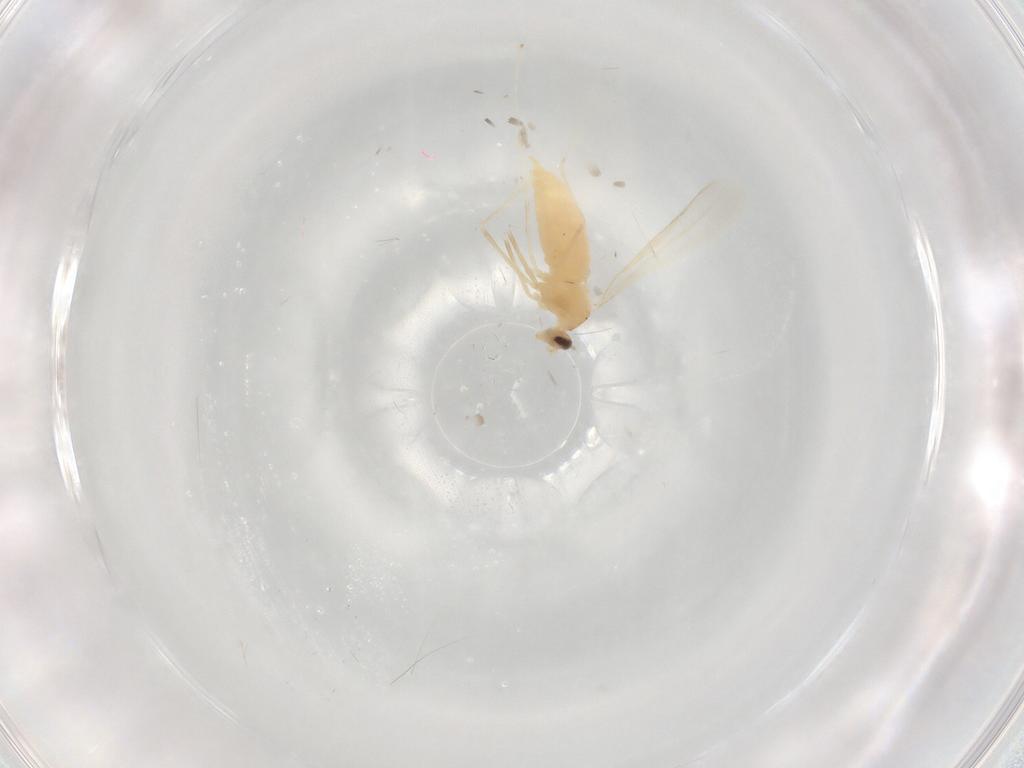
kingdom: Animalia
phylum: Arthropoda
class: Insecta
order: Diptera
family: Cecidomyiidae
